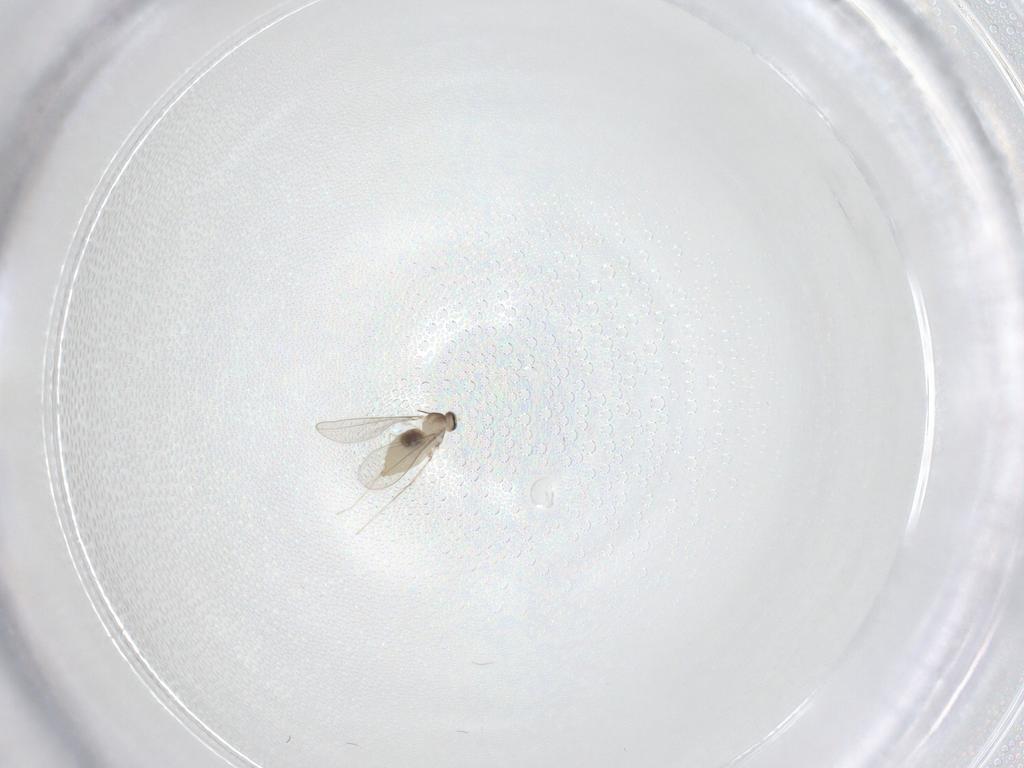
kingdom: Animalia
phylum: Arthropoda
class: Insecta
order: Diptera
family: Cecidomyiidae
